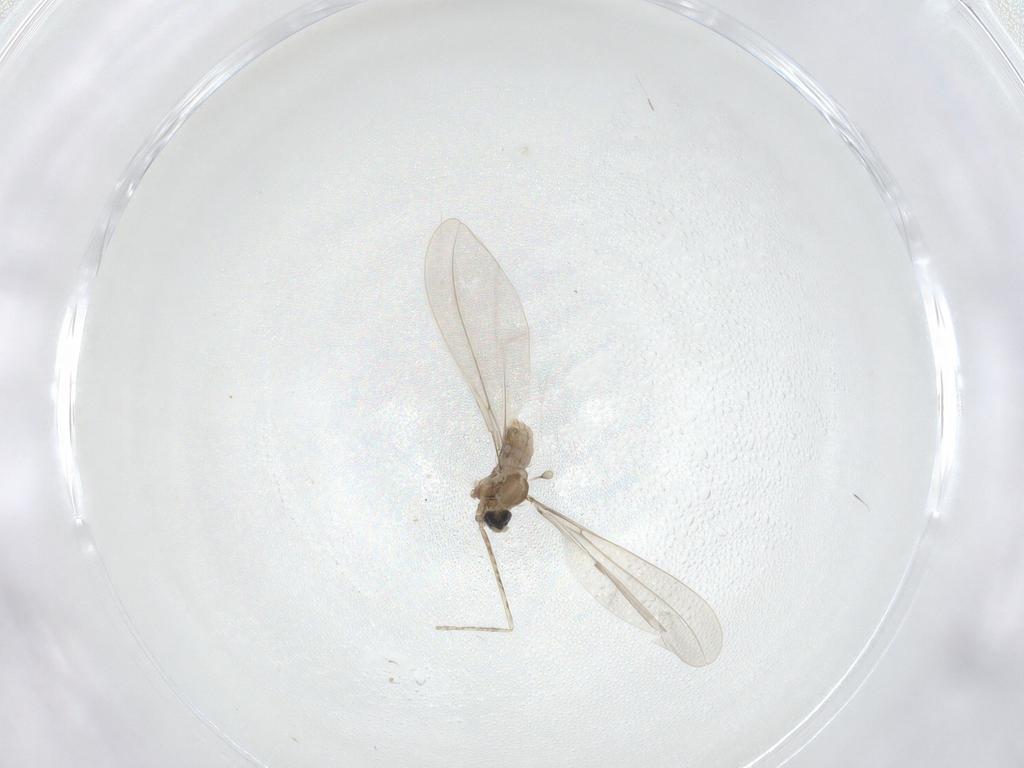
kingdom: Animalia
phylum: Arthropoda
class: Insecta
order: Diptera
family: Cecidomyiidae
